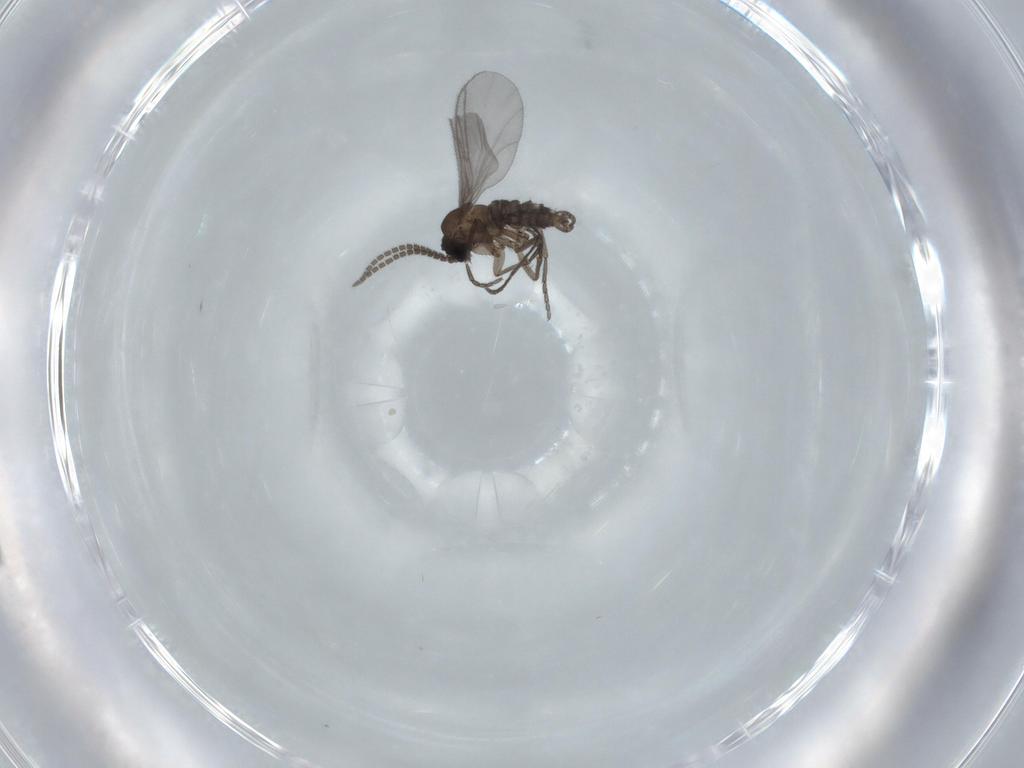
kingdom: Animalia
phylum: Arthropoda
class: Insecta
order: Diptera
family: Sciaridae
